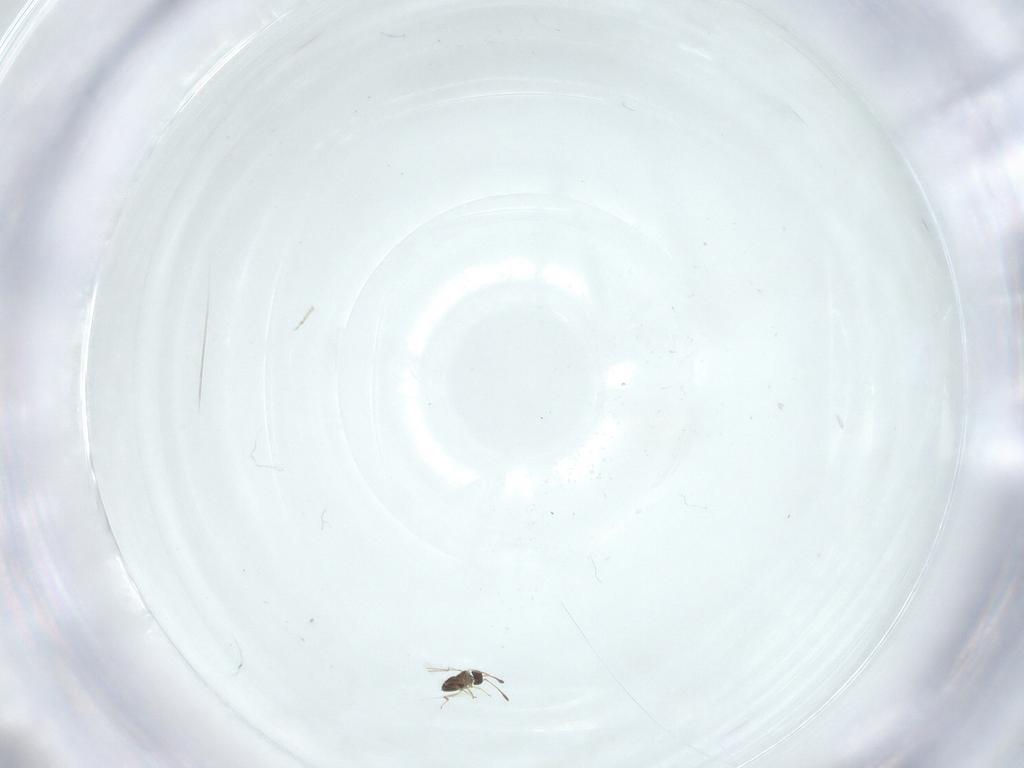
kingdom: Animalia
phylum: Arthropoda
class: Insecta
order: Coleoptera
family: Scraptiidae
